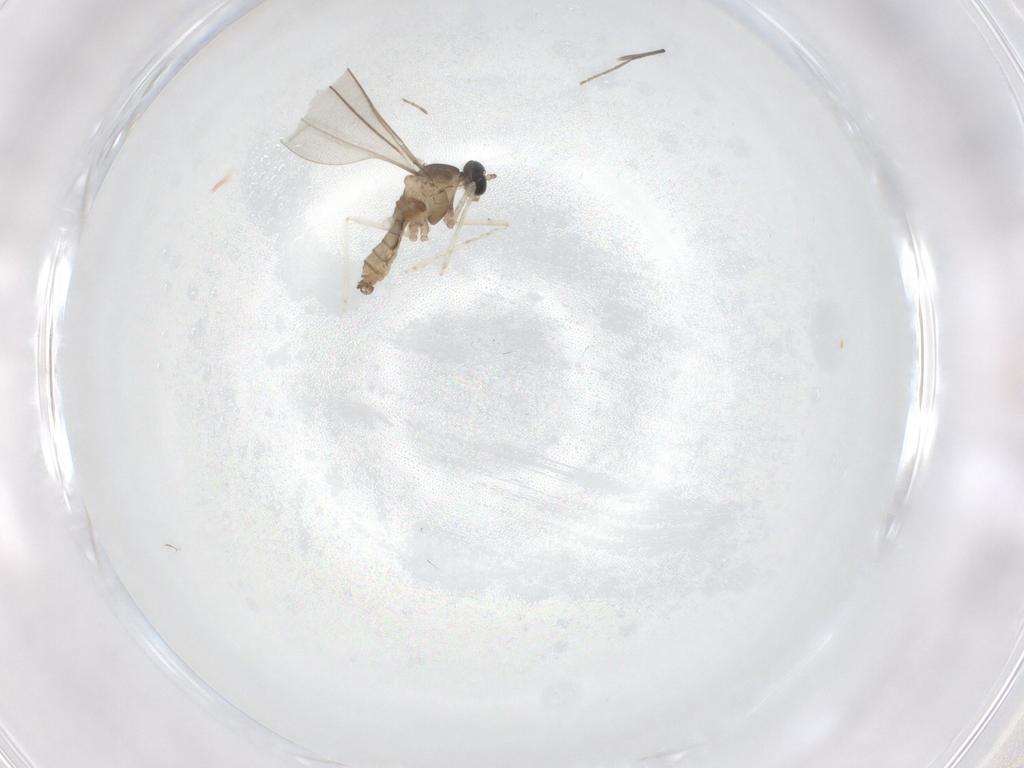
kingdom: Animalia
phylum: Arthropoda
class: Insecta
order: Diptera
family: Chironomidae
